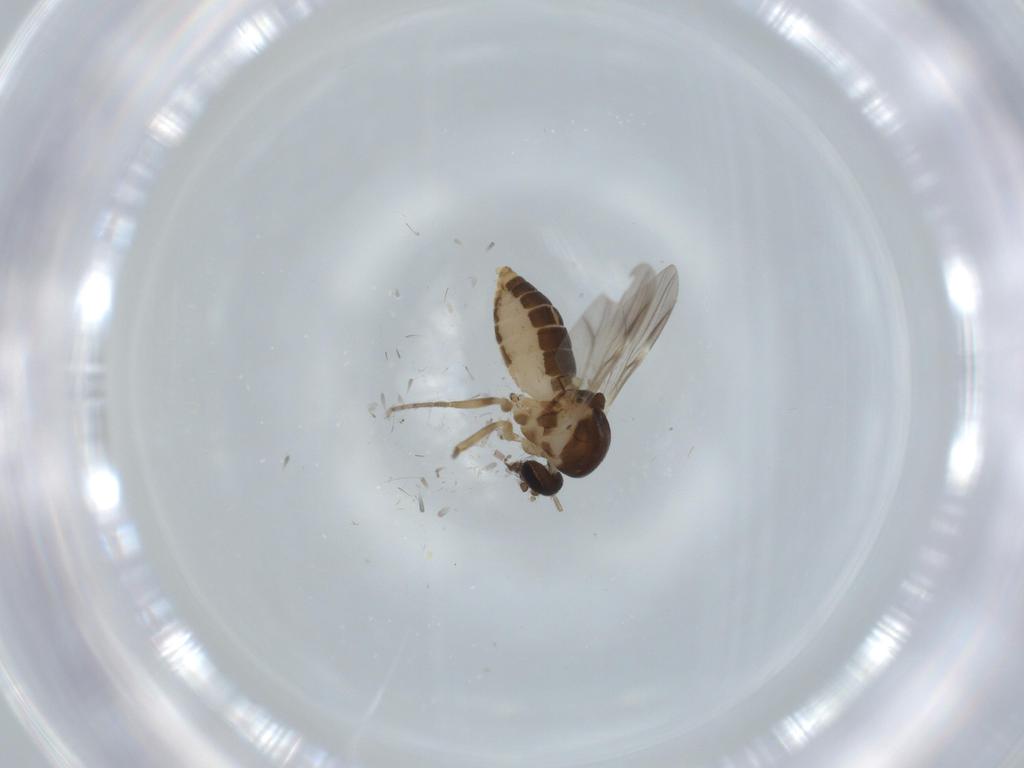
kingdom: Animalia
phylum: Arthropoda
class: Insecta
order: Diptera
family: Ceratopogonidae
